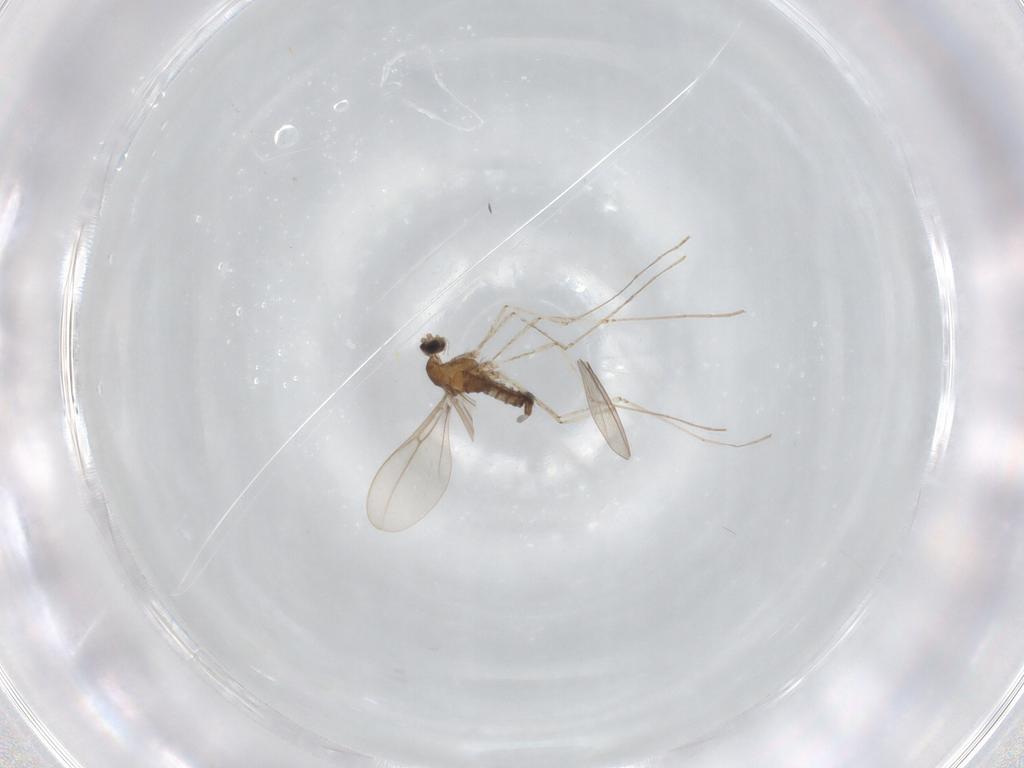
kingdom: Animalia
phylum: Arthropoda
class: Insecta
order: Diptera
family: Cecidomyiidae
